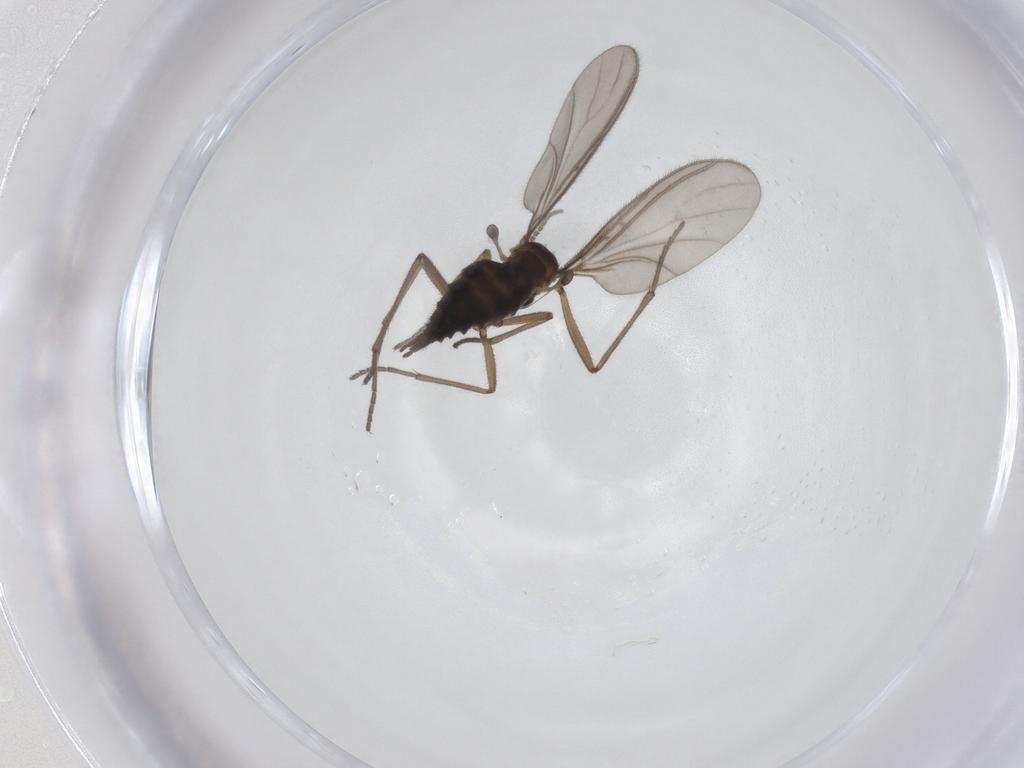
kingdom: Animalia
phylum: Arthropoda
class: Insecta
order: Diptera
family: Sciaridae
